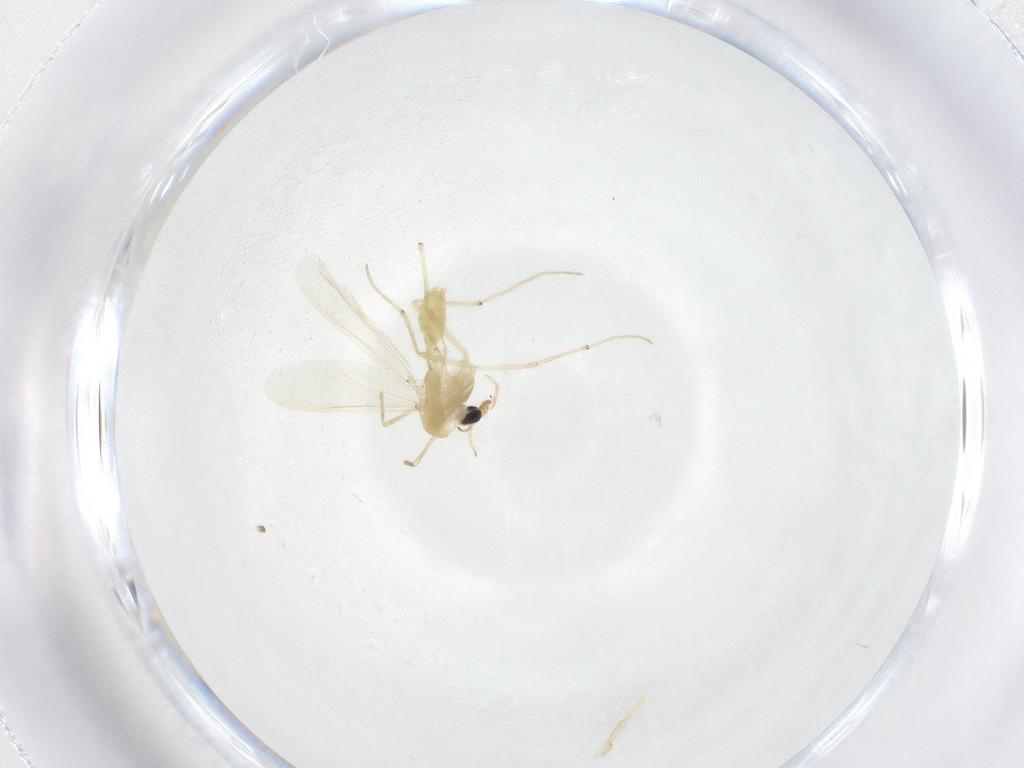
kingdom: Animalia
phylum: Arthropoda
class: Insecta
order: Diptera
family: Chironomidae
